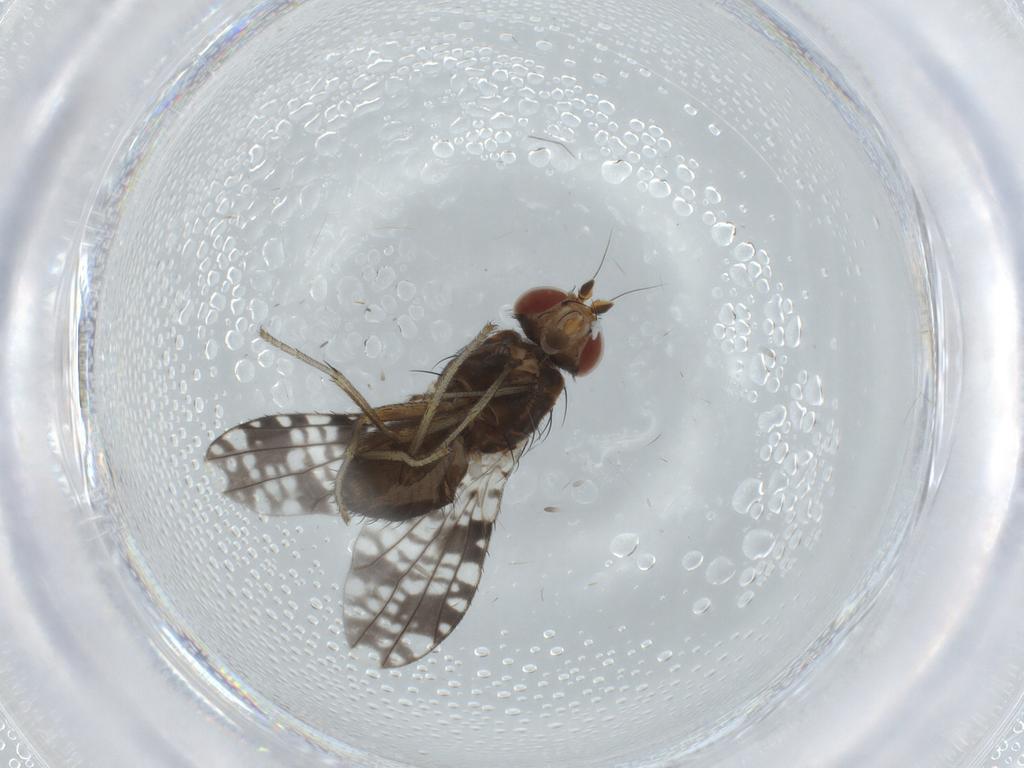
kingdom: Animalia
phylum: Arthropoda
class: Insecta
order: Diptera
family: Tephritidae
